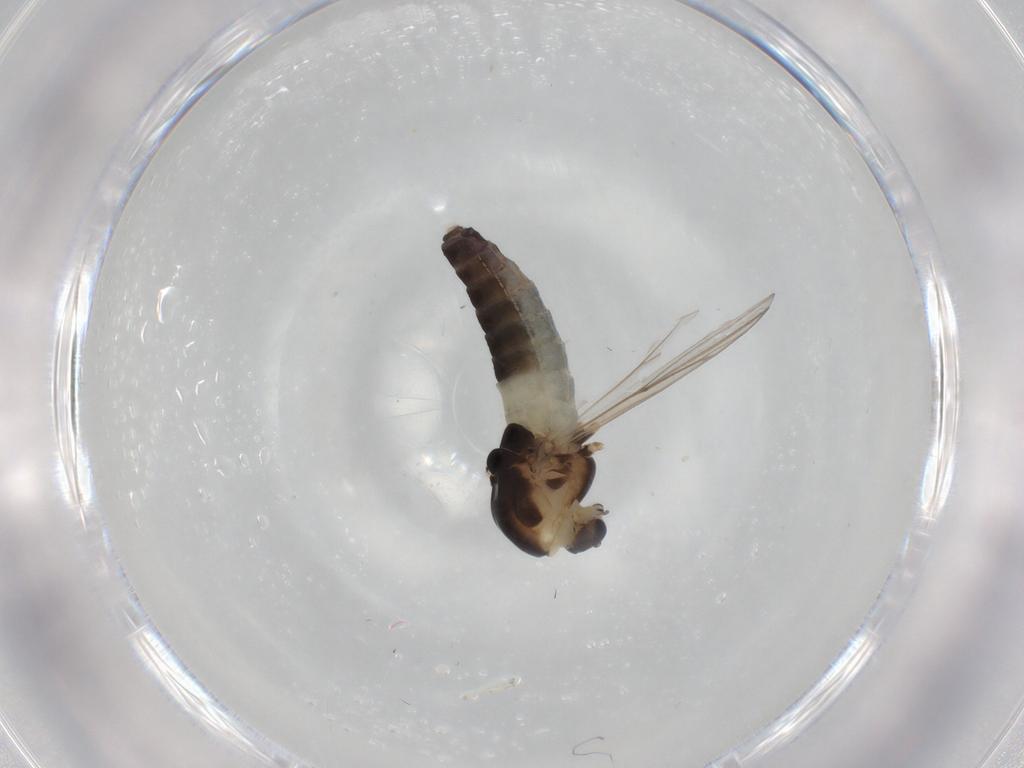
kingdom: Animalia
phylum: Arthropoda
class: Insecta
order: Diptera
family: Chironomidae
